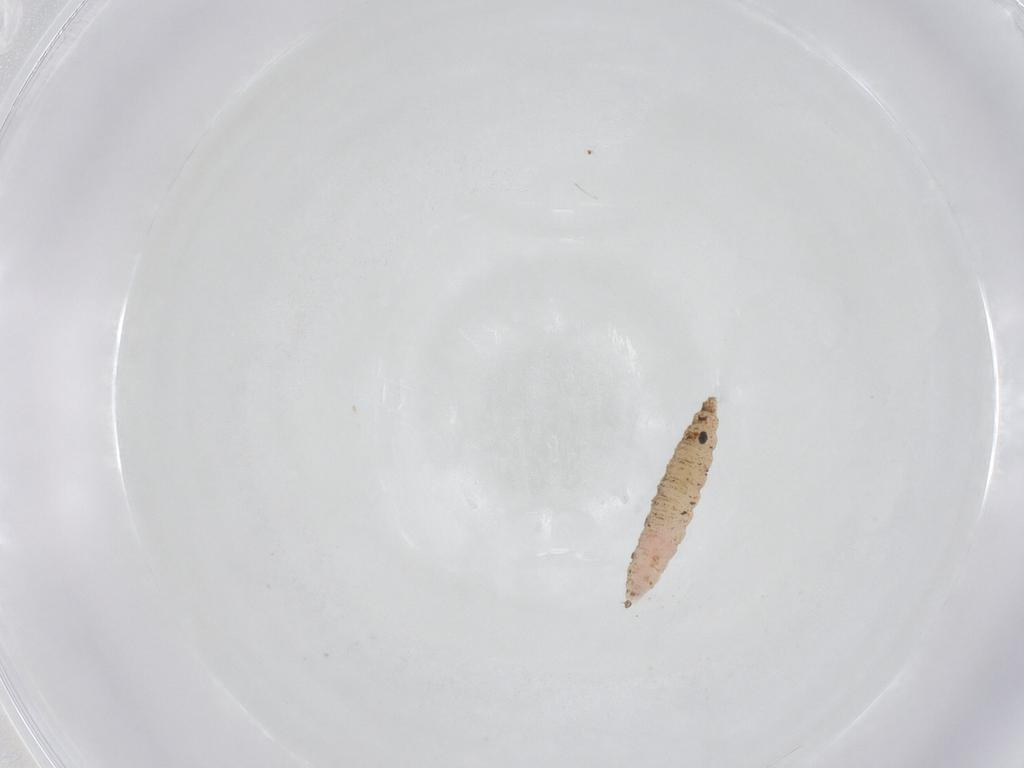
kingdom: Animalia
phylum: Arthropoda
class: Insecta
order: Diptera
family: Cecidomyiidae
